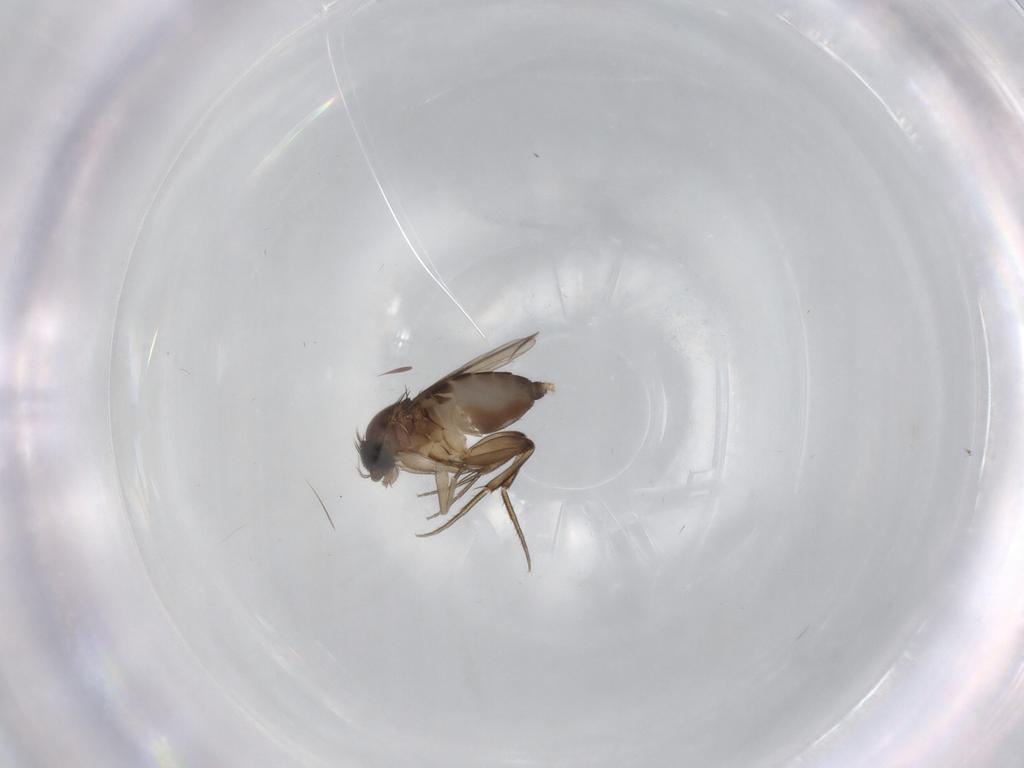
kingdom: Animalia
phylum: Arthropoda
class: Insecta
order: Diptera
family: Phoridae
